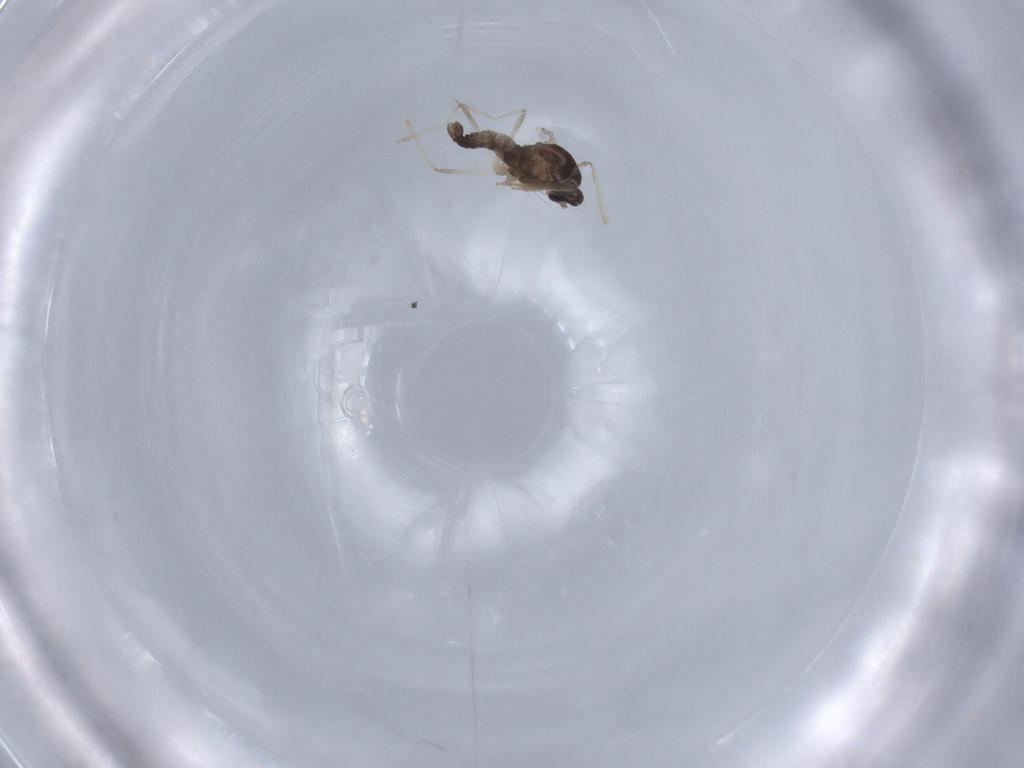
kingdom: Animalia
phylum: Arthropoda
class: Insecta
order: Diptera
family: Cecidomyiidae
